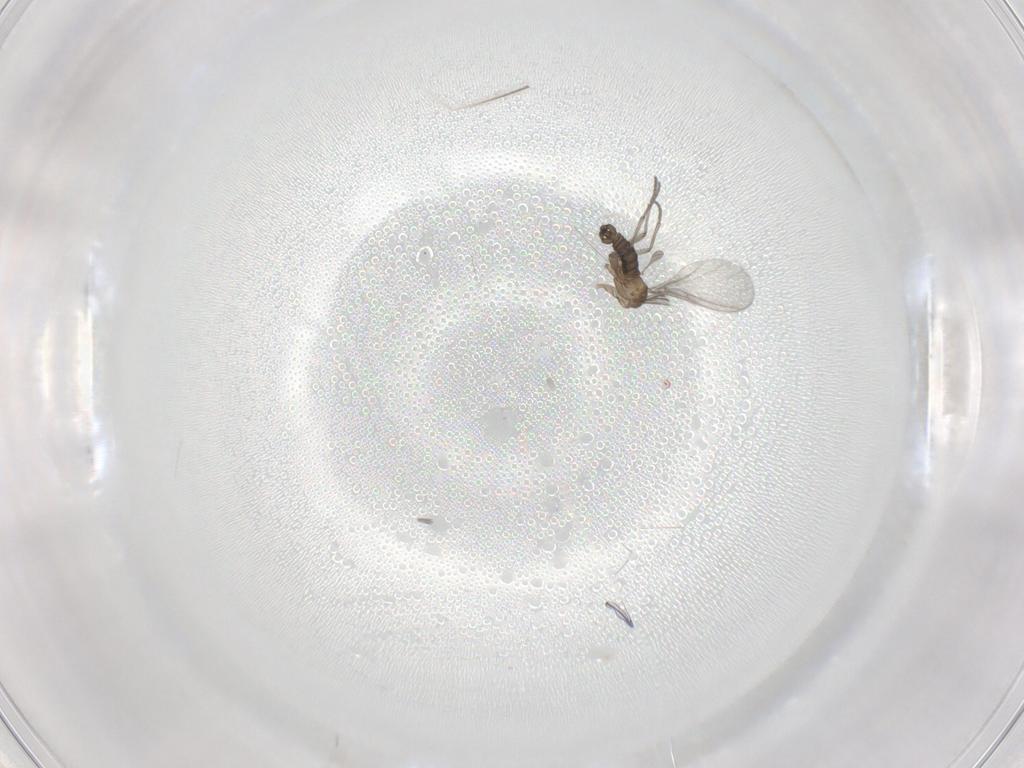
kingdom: Animalia
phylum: Arthropoda
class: Insecta
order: Diptera
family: Sciaridae
